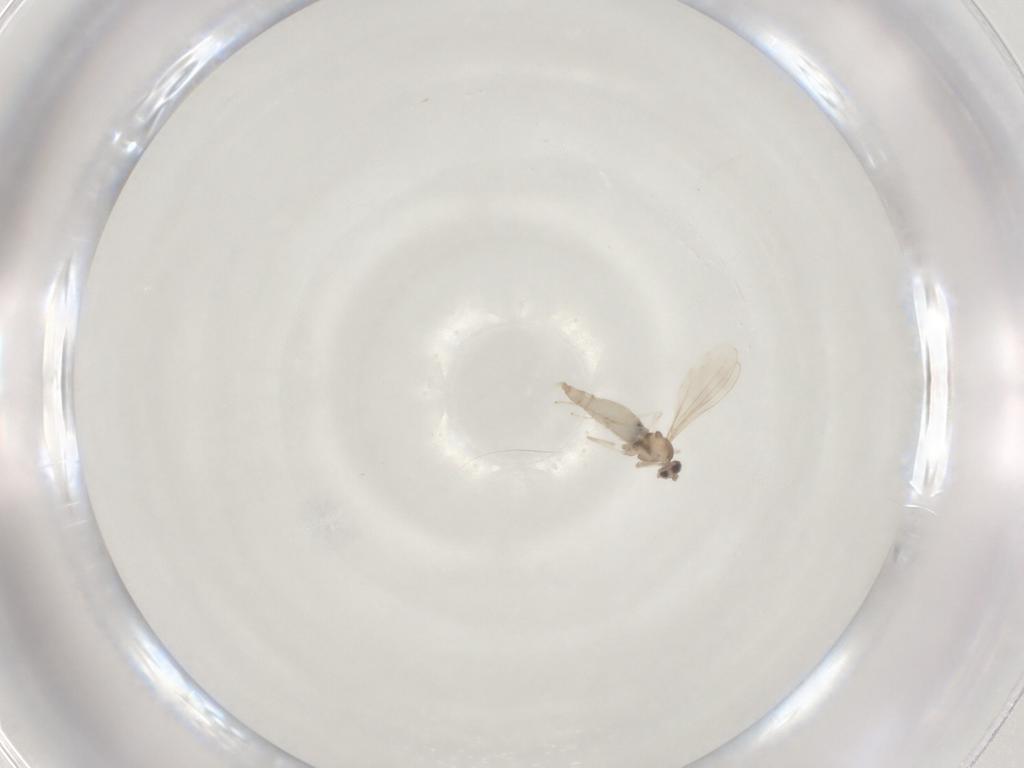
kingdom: Animalia
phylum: Arthropoda
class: Insecta
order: Diptera
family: Cecidomyiidae
